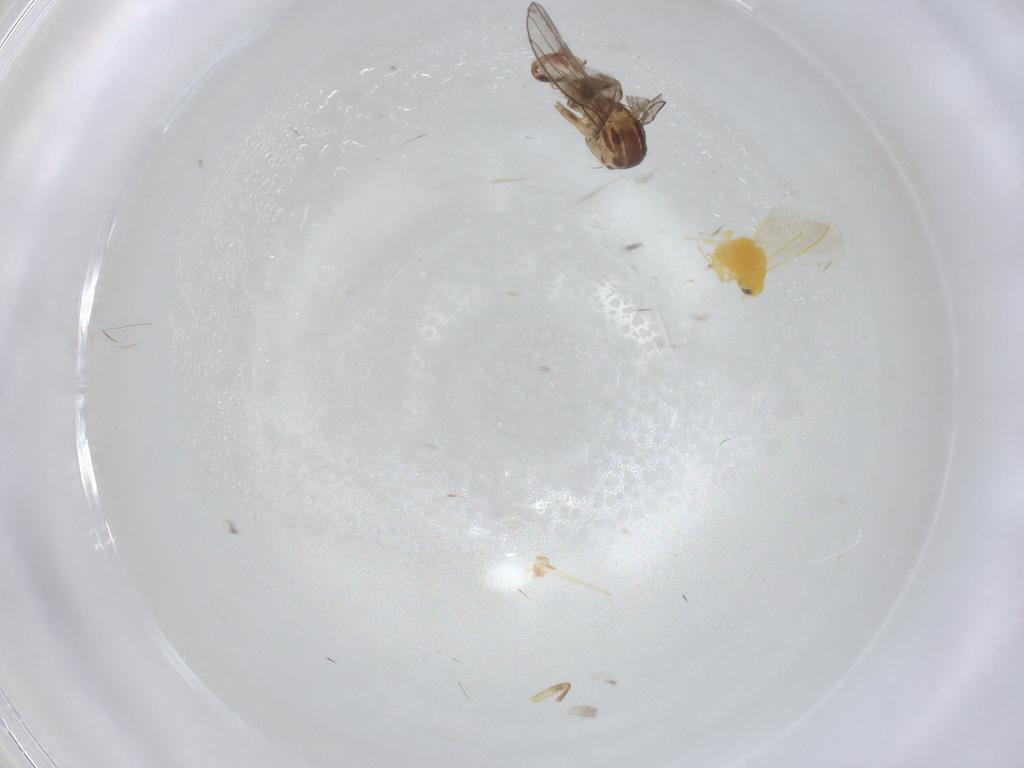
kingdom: Animalia
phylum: Arthropoda
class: Insecta
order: Diptera
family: Agromyzidae
